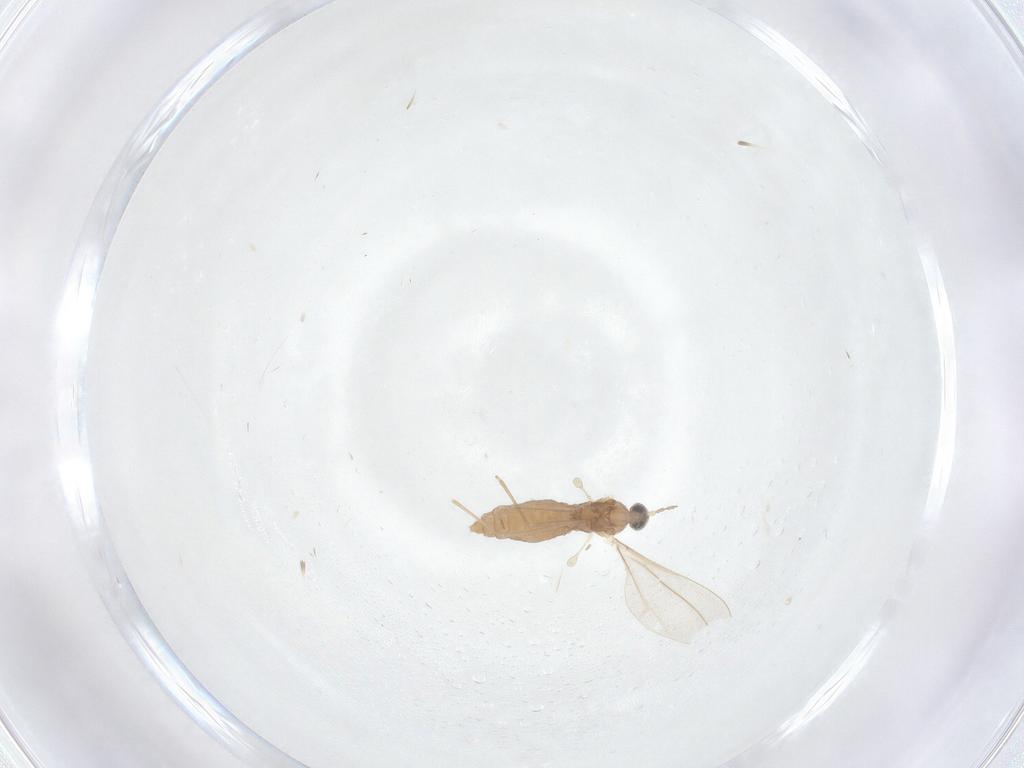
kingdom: Animalia
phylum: Arthropoda
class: Insecta
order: Diptera
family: Cecidomyiidae
